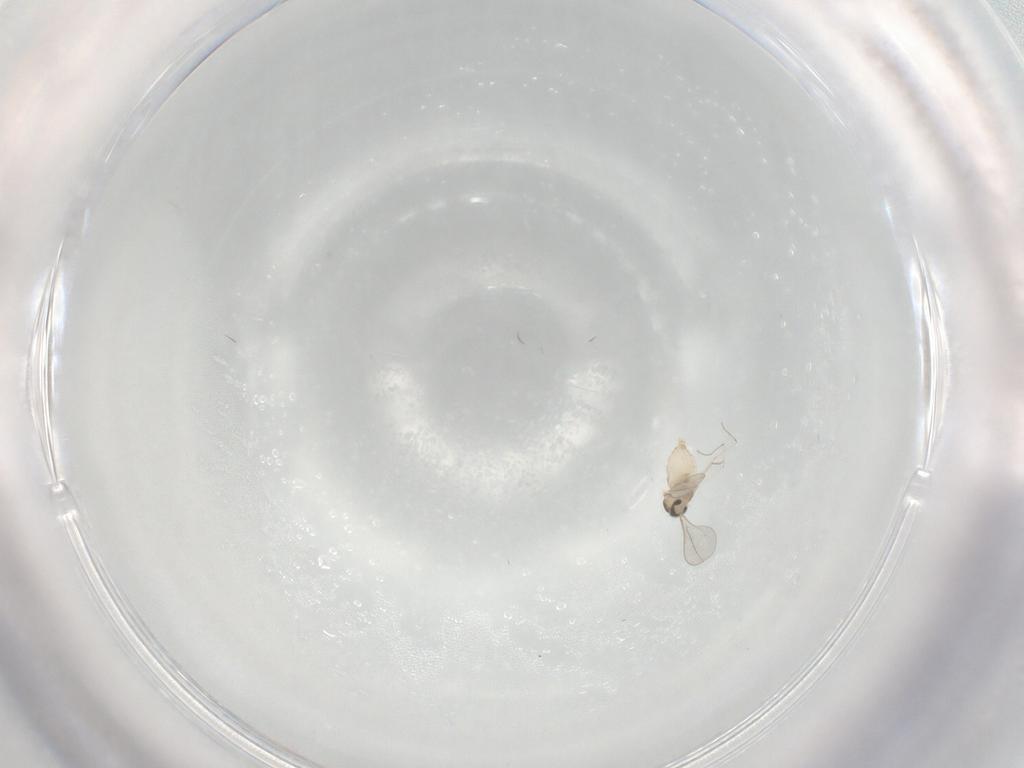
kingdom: Animalia
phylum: Arthropoda
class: Insecta
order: Diptera
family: Cecidomyiidae
